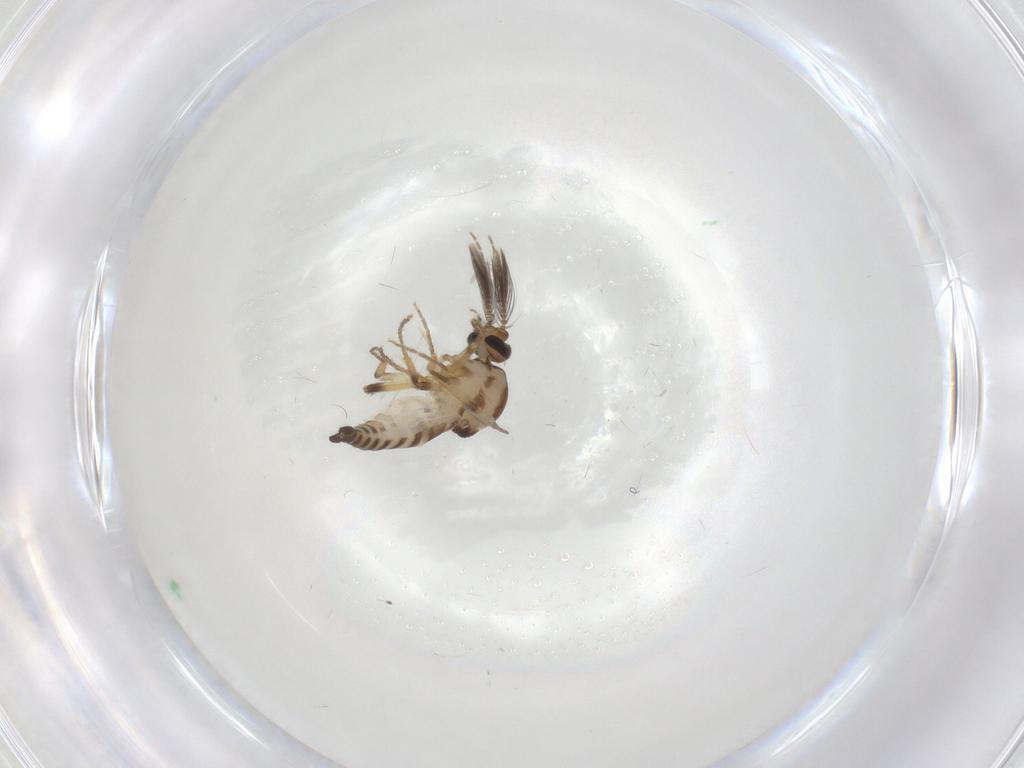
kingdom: Animalia
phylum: Arthropoda
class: Insecta
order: Diptera
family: Ceratopogonidae
